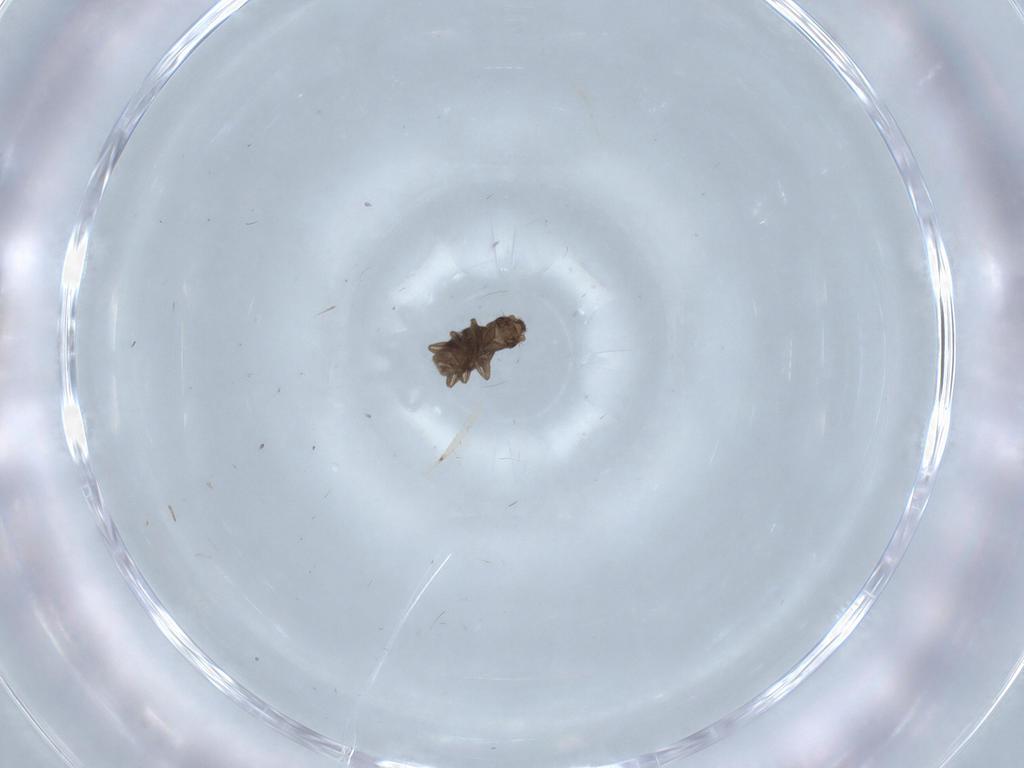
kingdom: Animalia
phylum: Arthropoda
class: Insecta
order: Diptera
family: Cecidomyiidae
